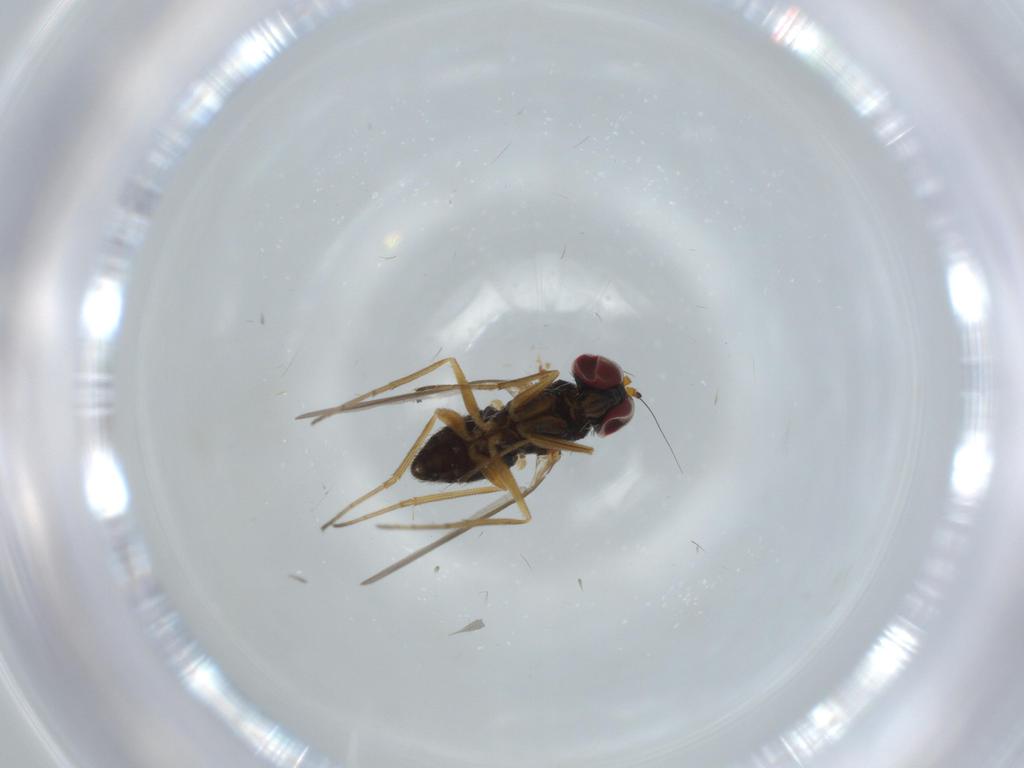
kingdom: Animalia
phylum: Arthropoda
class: Insecta
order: Diptera
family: Dolichopodidae
